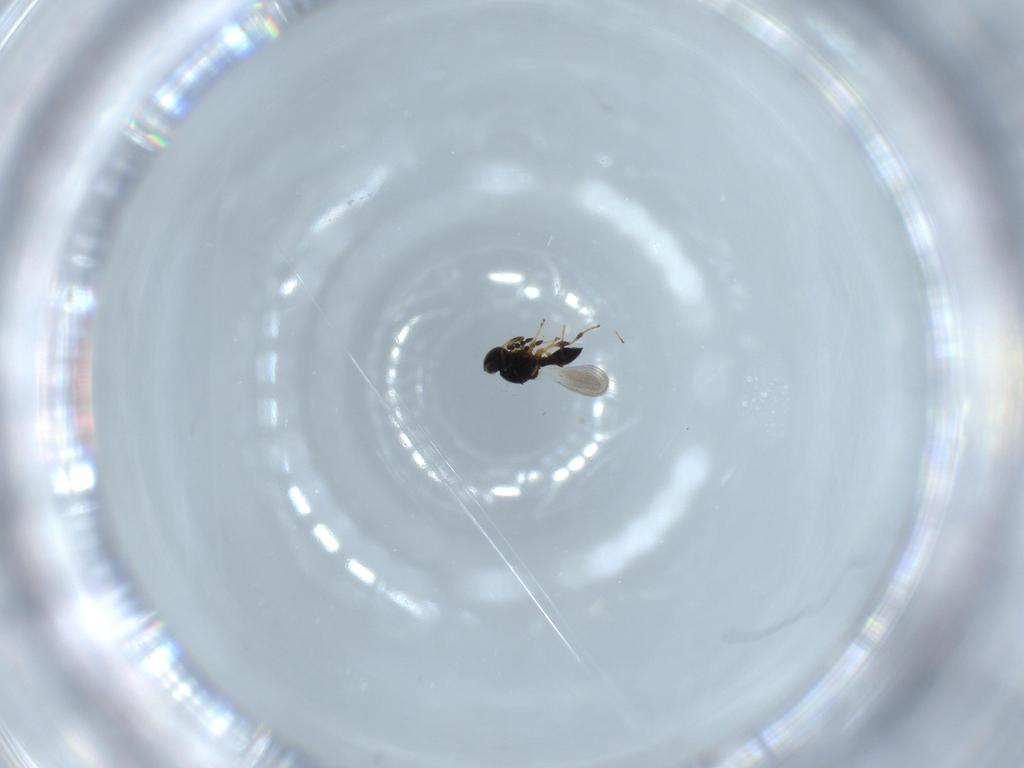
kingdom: Animalia
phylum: Arthropoda
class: Insecta
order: Hymenoptera
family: Platygastridae
